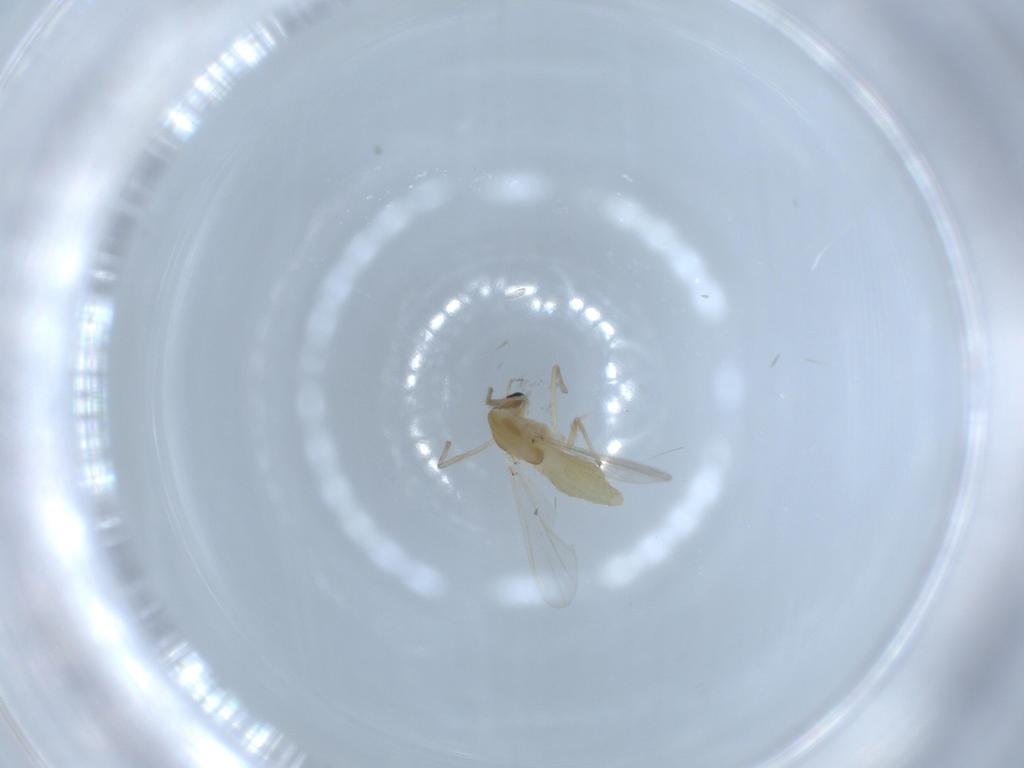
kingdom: Animalia
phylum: Arthropoda
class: Insecta
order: Diptera
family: Chironomidae
